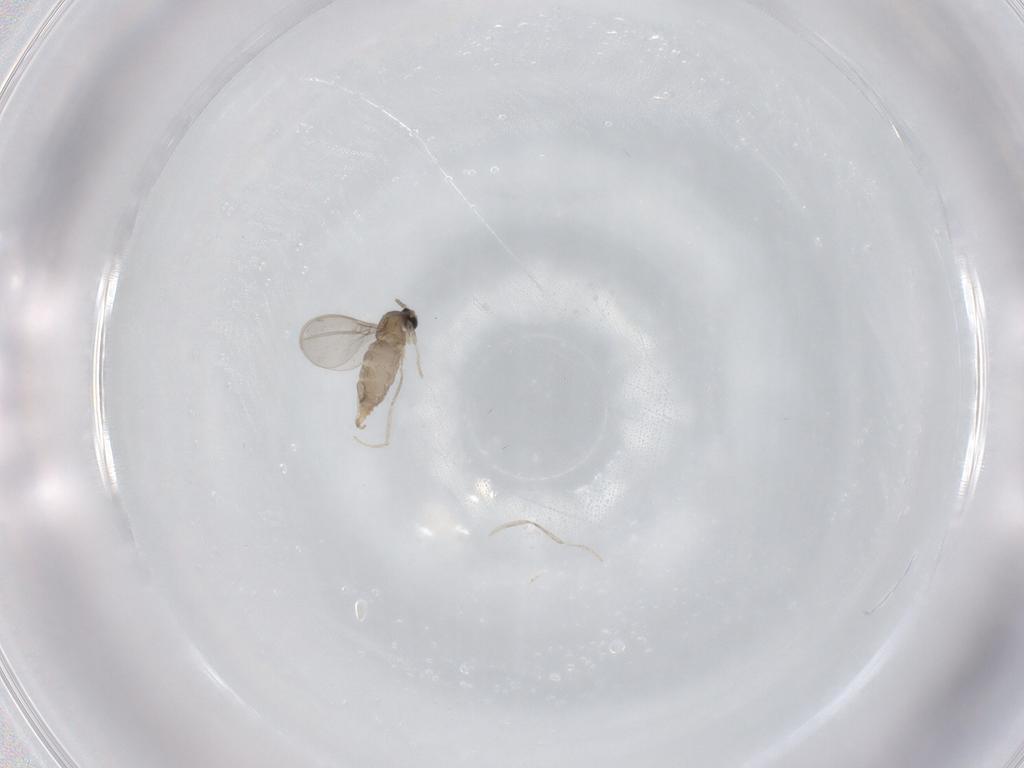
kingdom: Animalia
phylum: Arthropoda
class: Insecta
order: Diptera
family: Cecidomyiidae
